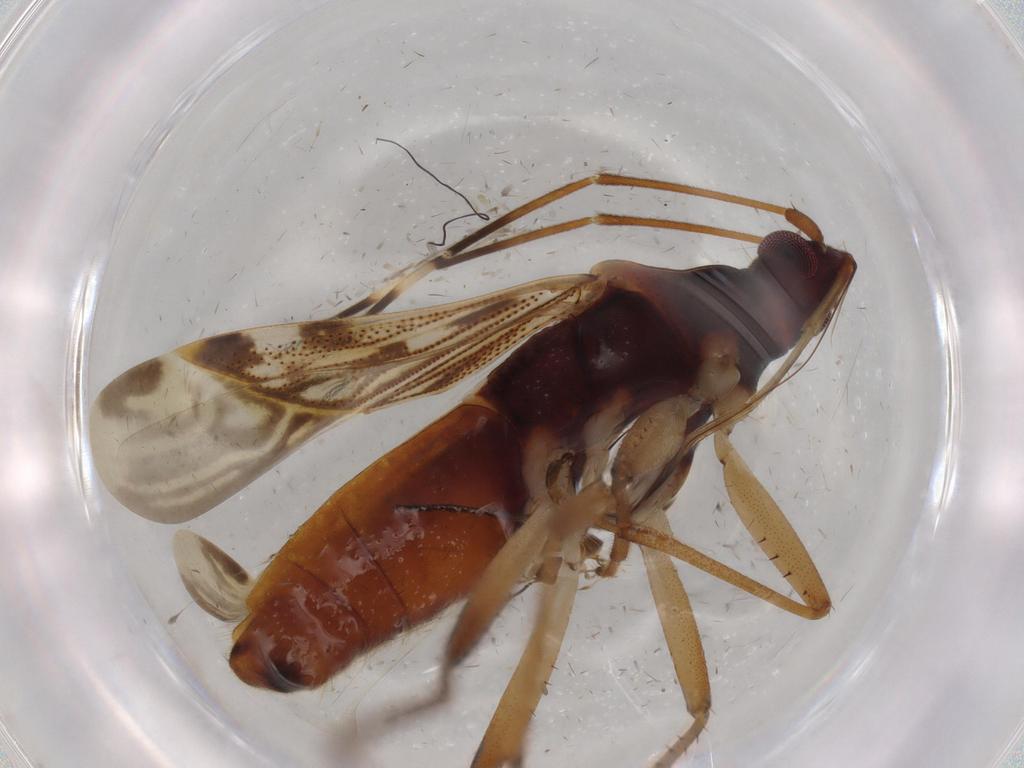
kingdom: Animalia
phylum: Arthropoda
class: Insecta
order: Hemiptera
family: Rhyparochromidae
